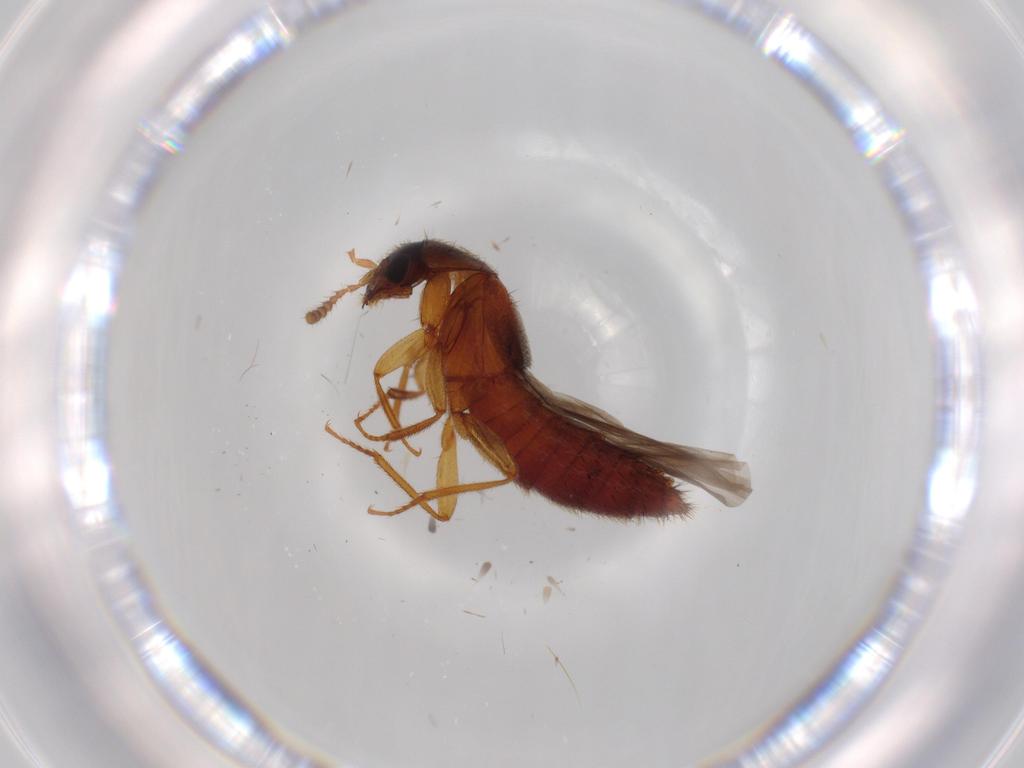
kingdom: Animalia
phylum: Arthropoda
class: Insecta
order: Coleoptera
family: Staphylinidae
